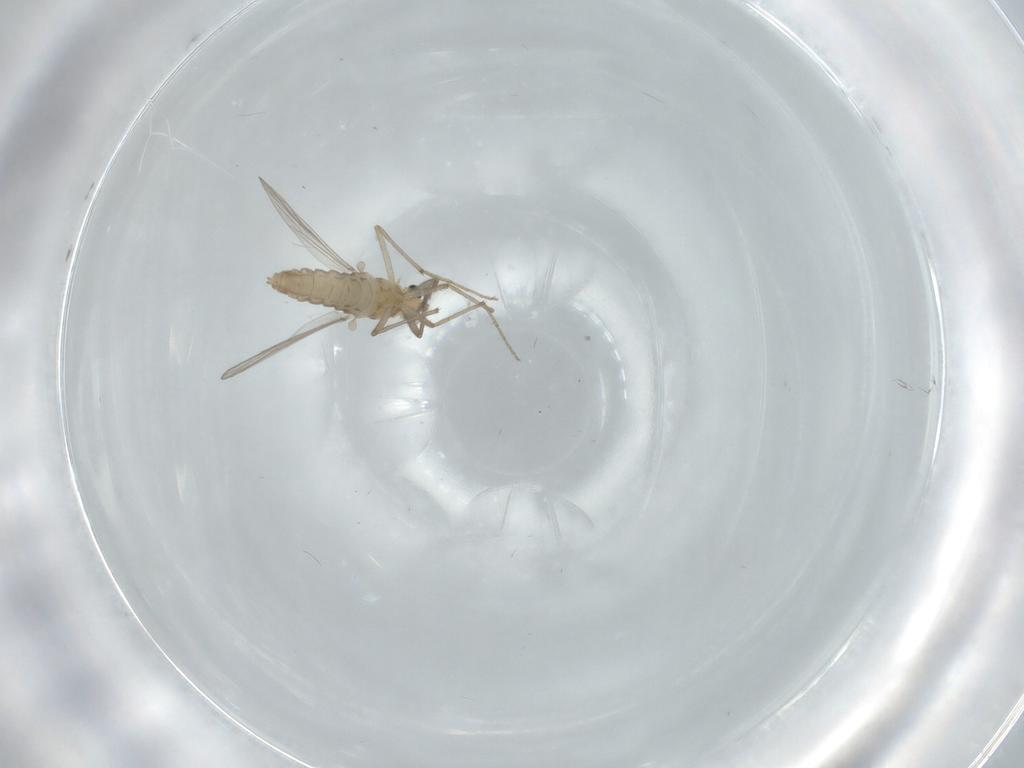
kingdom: Animalia
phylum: Arthropoda
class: Insecta
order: Diptera
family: Chironomidae
